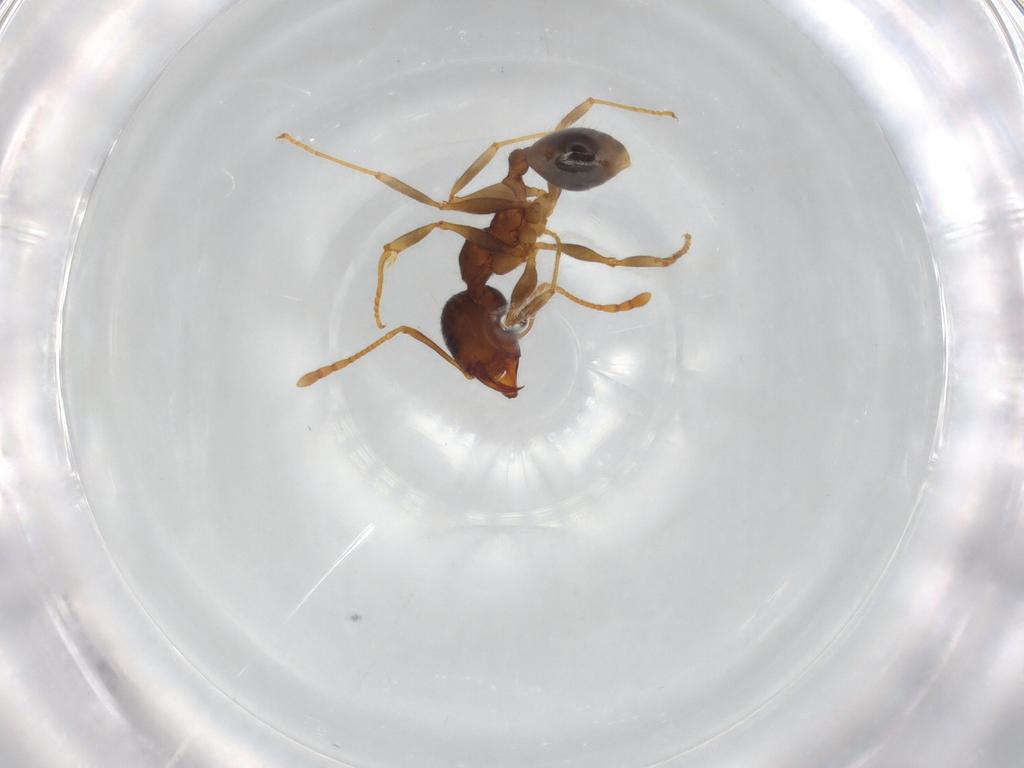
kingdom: Animalia
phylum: Arthropoda
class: Insecta
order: Hymenoptera
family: Formicidae
